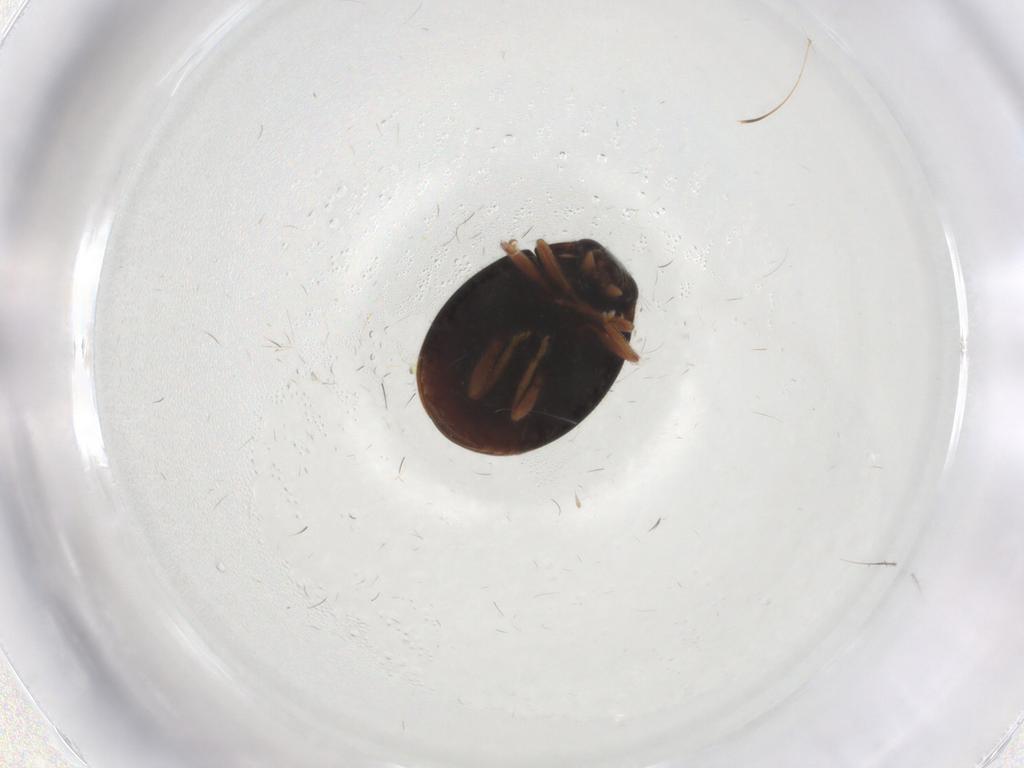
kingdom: Animalia
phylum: Arthropoda
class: Insecta
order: Coleoptera
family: Coccinellidae
